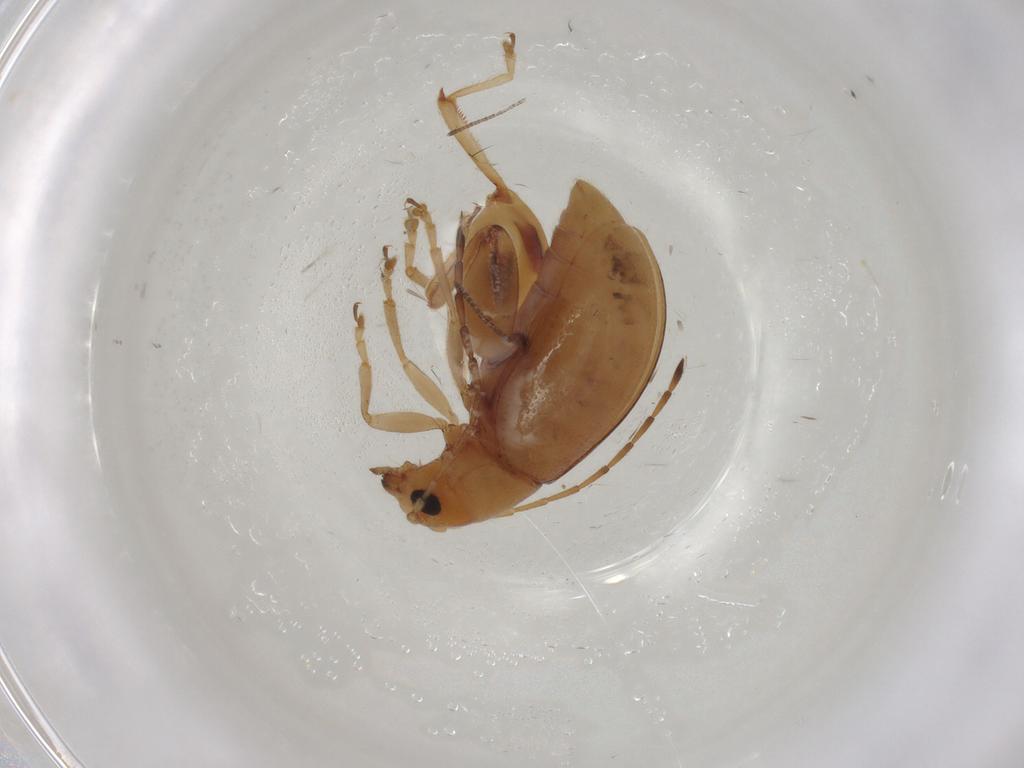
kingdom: Animalia
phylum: Arthropoda
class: Insecta
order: Coleoptera
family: Chrysomelidae
